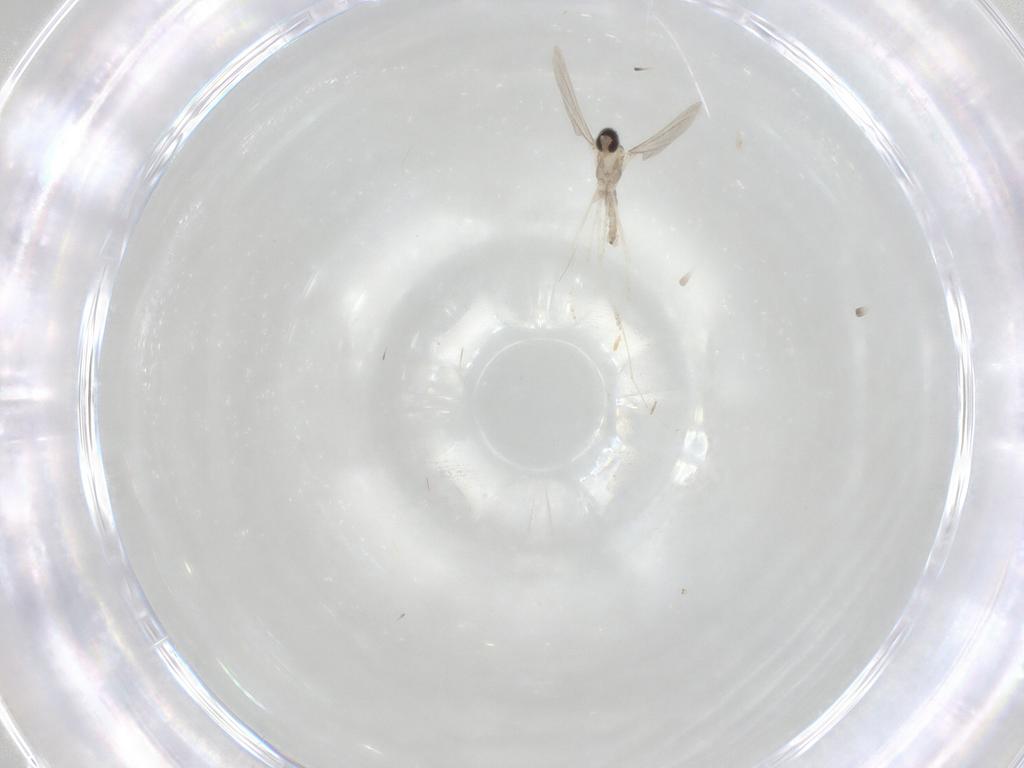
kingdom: Animalia
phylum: Arthropoda
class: Insecta
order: Diptera
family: Cecidomyiidae
